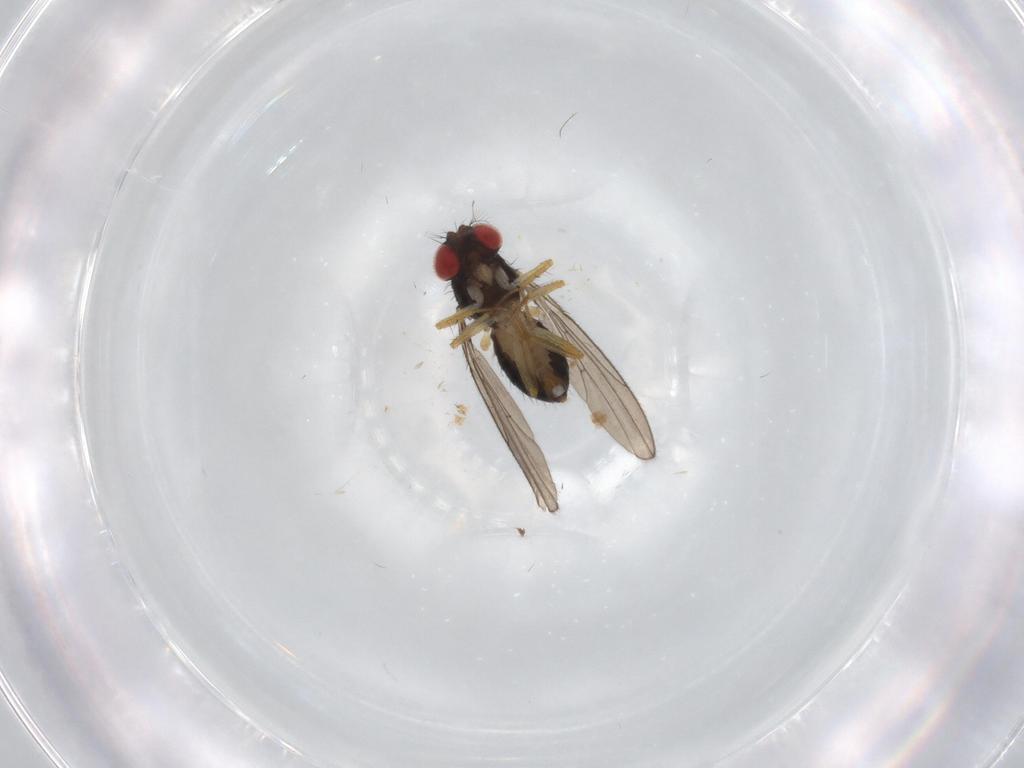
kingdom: Animalia
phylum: Arthropoda
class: Insecta
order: Diptera
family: Drosophilidae
